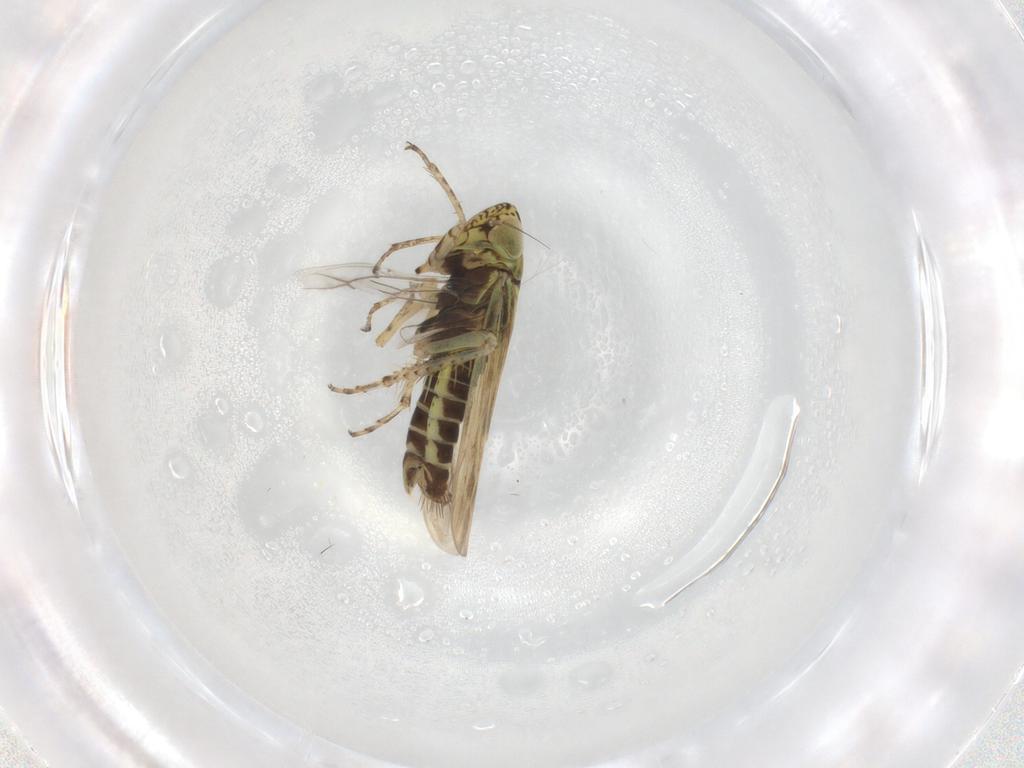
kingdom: Animalia
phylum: Arthropoda
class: Insecta
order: Hemiptera
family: Cicadellidae
